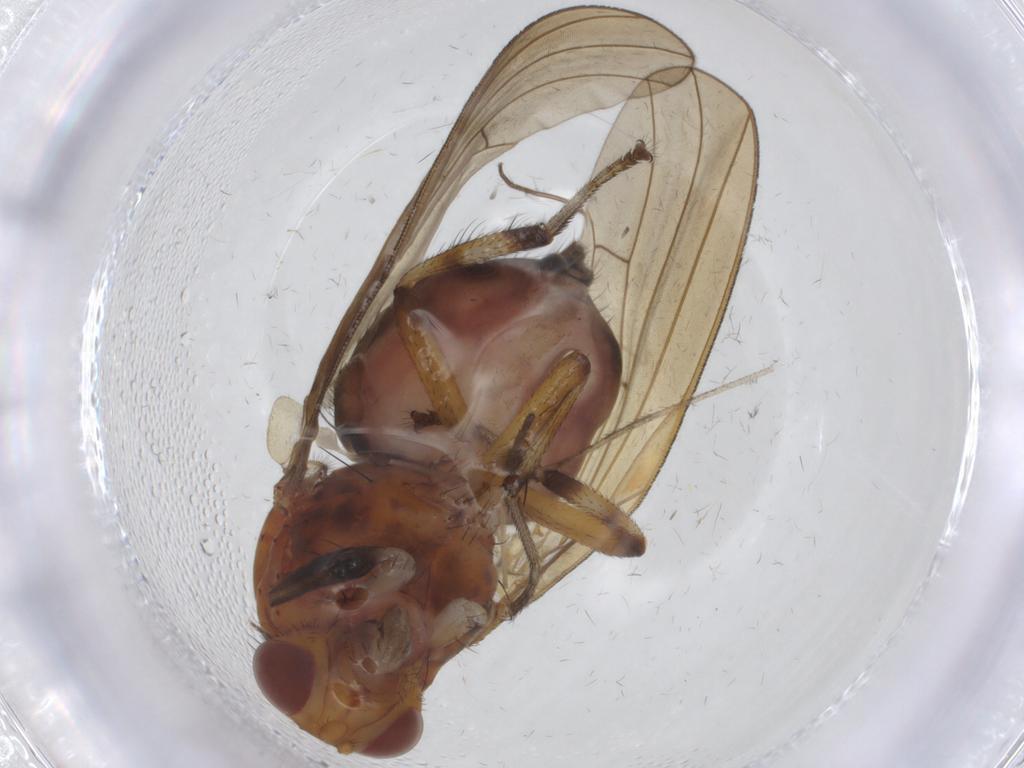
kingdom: Animalia
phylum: Arthropoda
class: Insecta
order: Diptera
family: Chironomidae
